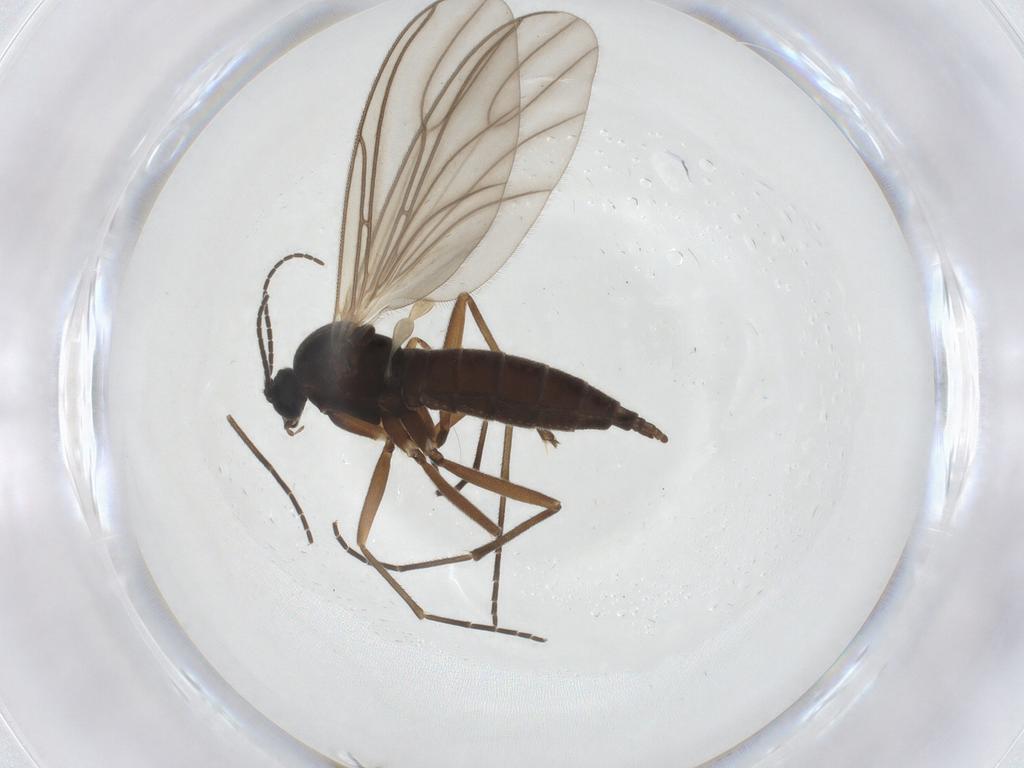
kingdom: Animalia
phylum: Arthropoda
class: Insecta
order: Diptera
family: Sciaridae
